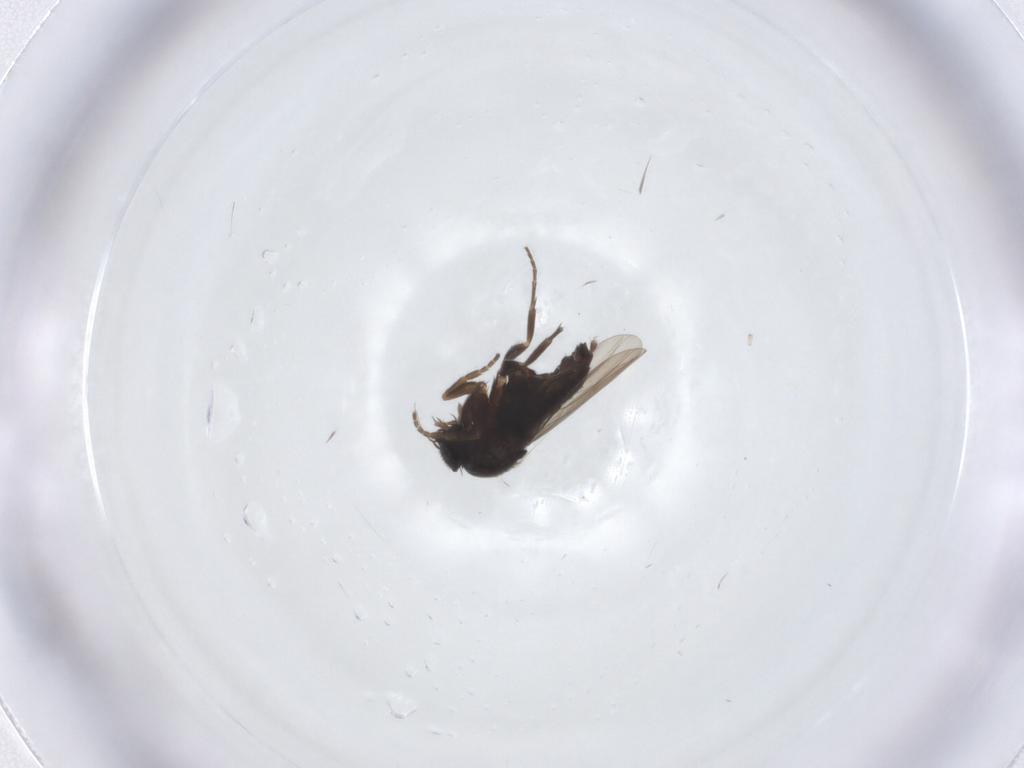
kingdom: Animalia
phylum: Arthropoda
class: Insecta
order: Diptera
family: Phoridae
